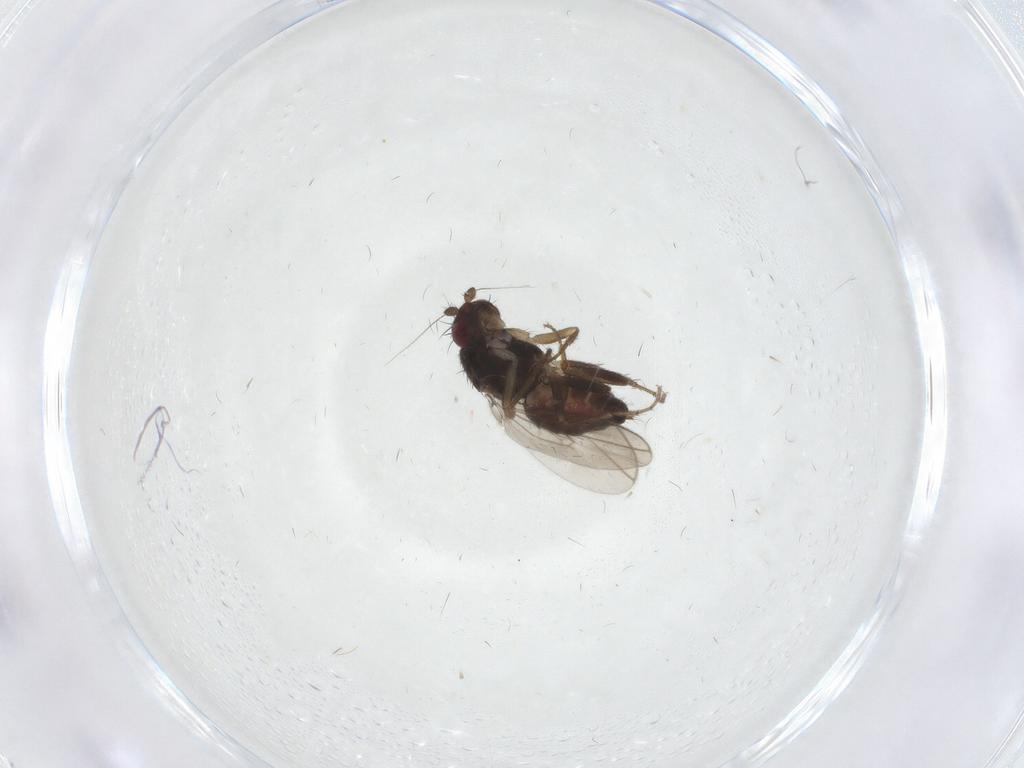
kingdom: Animalia
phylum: Arthropoda
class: Insecta
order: Diptera
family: Sphaeroceridae
